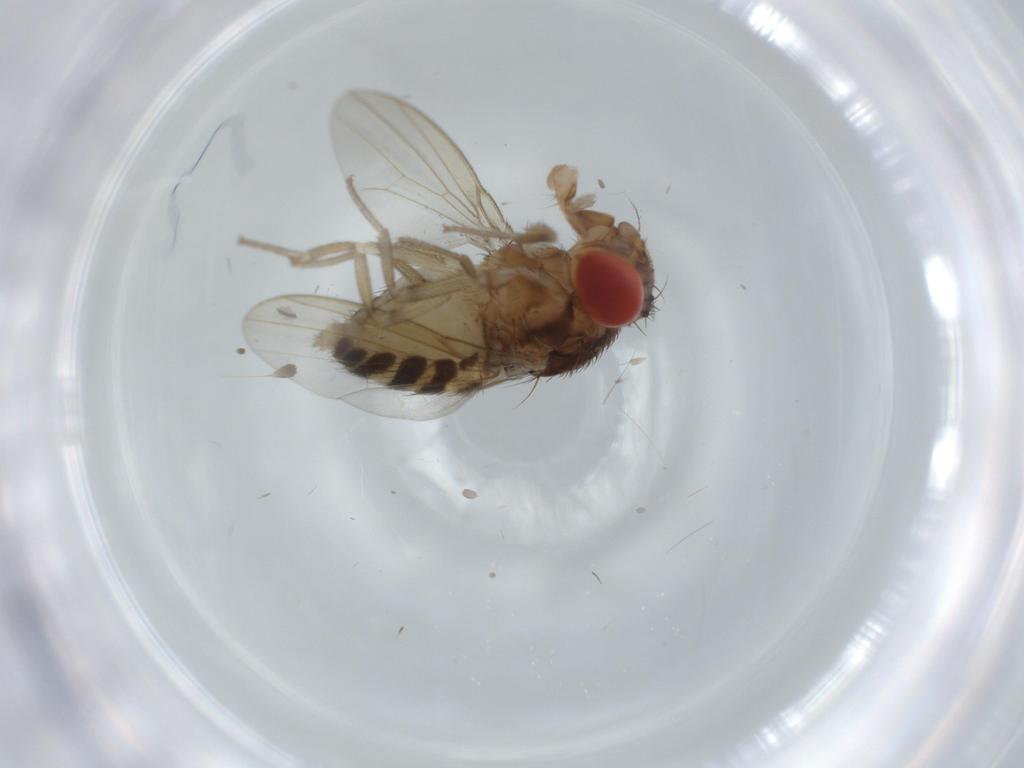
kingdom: Animalia
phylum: Arthropoda
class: Insecta
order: Diptera
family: Drosophilidae
